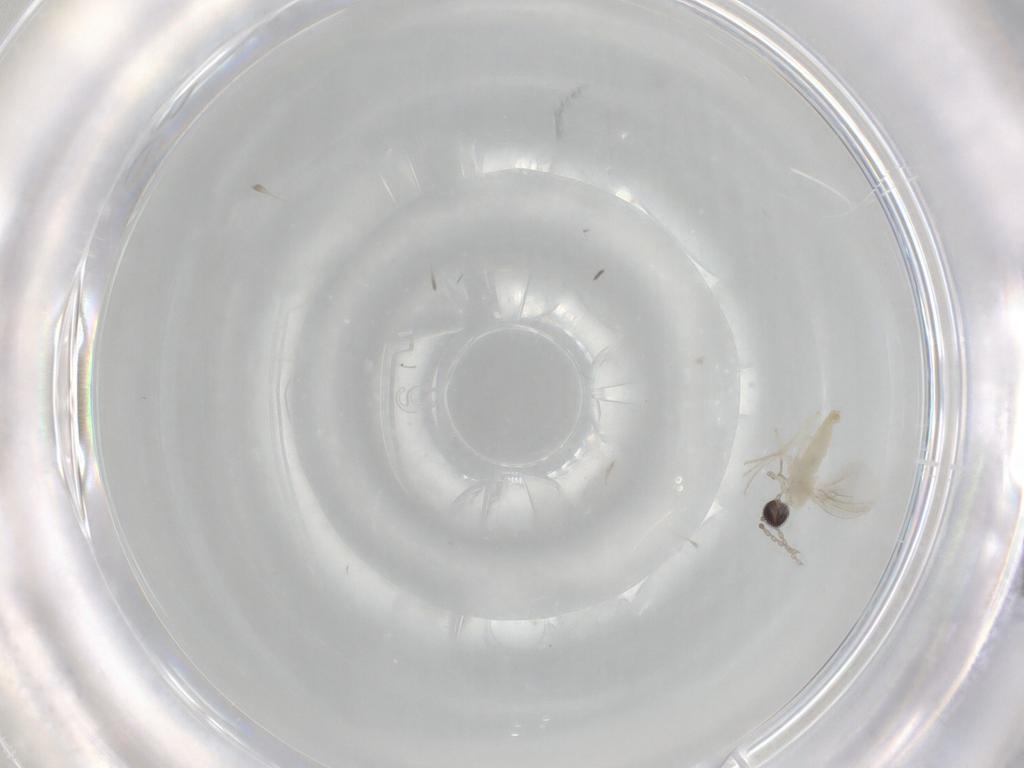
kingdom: Animalia
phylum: Arthropoda
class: Insecta
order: Diptera
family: Cecidomyiidae
